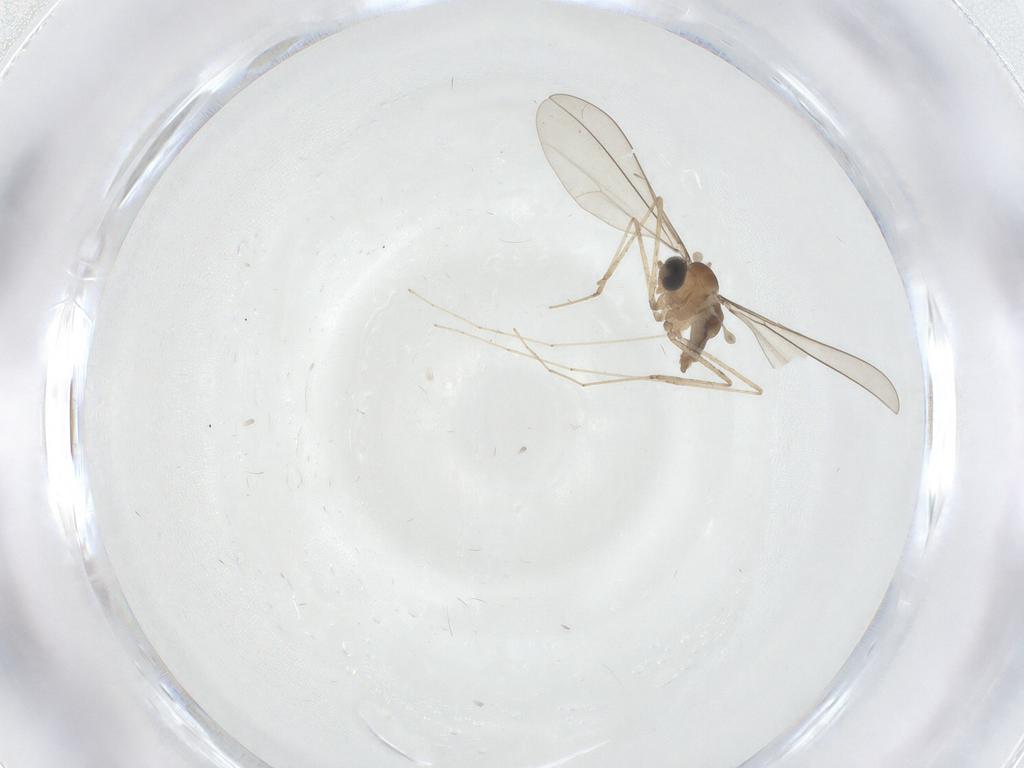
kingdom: Animalia
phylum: Arthropoda
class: Insecta
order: Diptera
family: Cecidomyiidae
